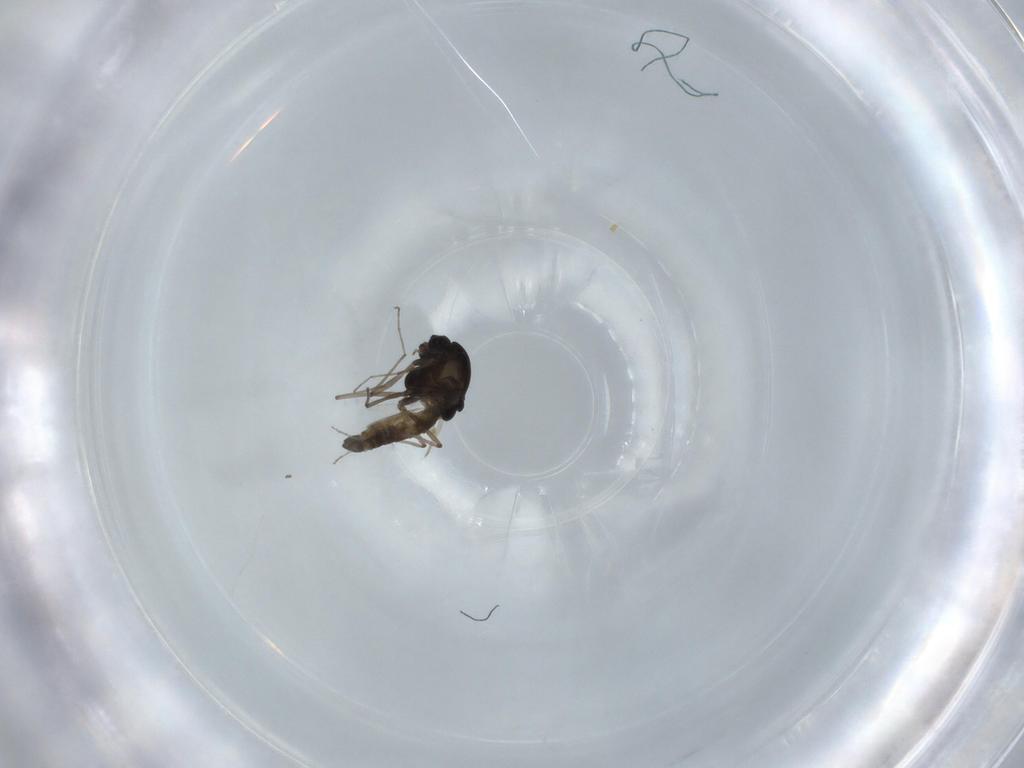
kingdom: Animalia
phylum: Arthropoda
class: Insecta
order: Diptera
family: Chironomidae
